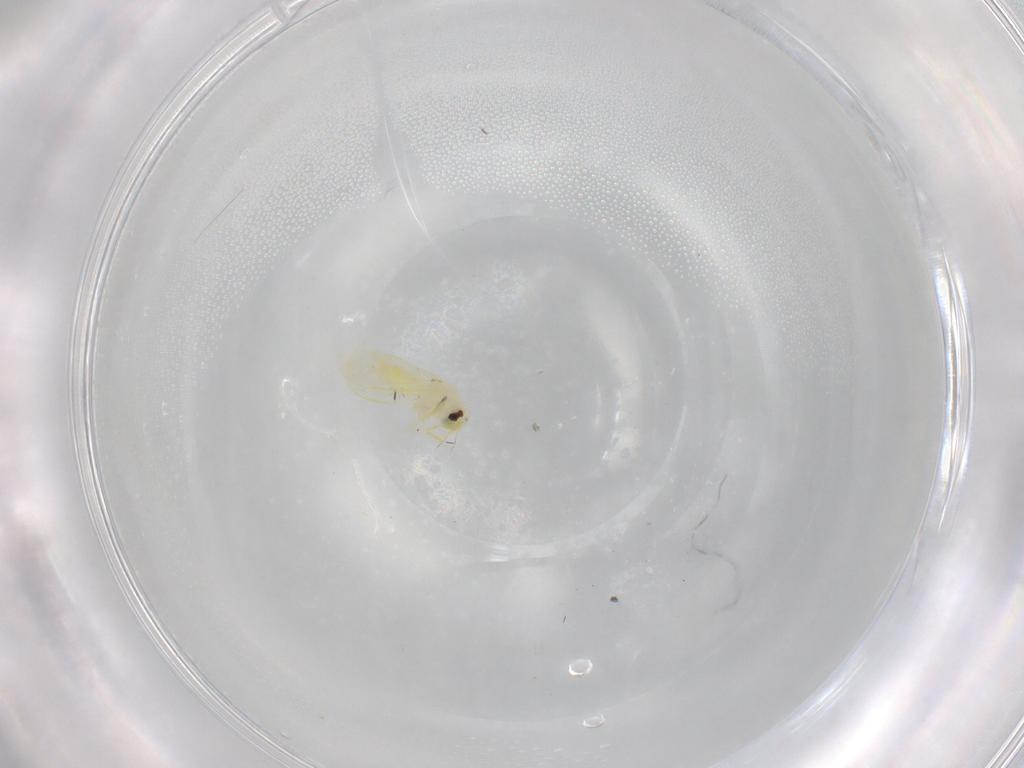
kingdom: Animalia
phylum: Arthropoda
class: Insecta
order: Hemiptera
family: Aleyrodidae
